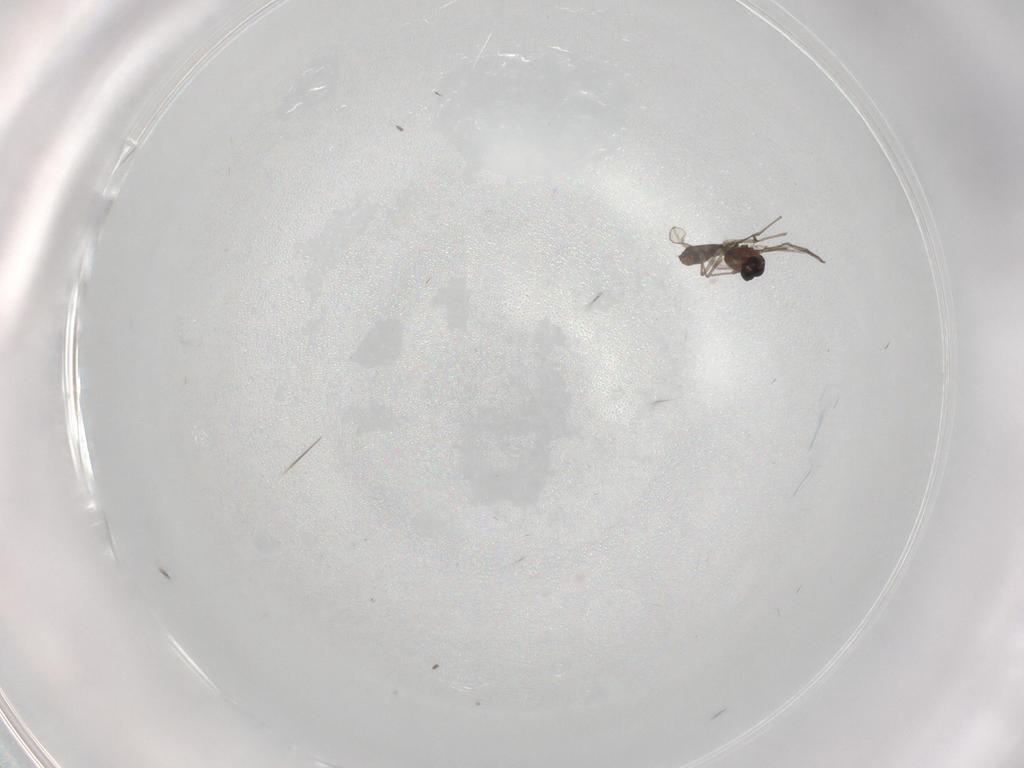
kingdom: Animalia
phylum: Arthropoda
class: Insecta
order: Diptera
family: Chironomidae
